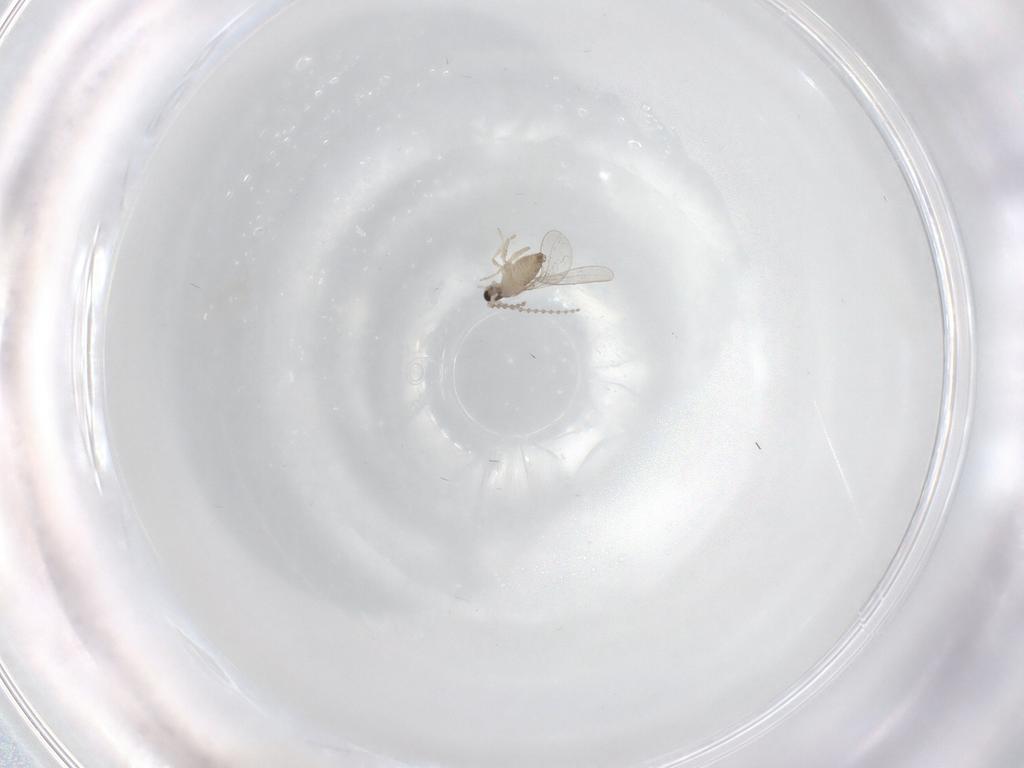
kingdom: Animalia
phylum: Arthropoda
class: Insecta
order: Diptera
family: Cecidomyiidae
